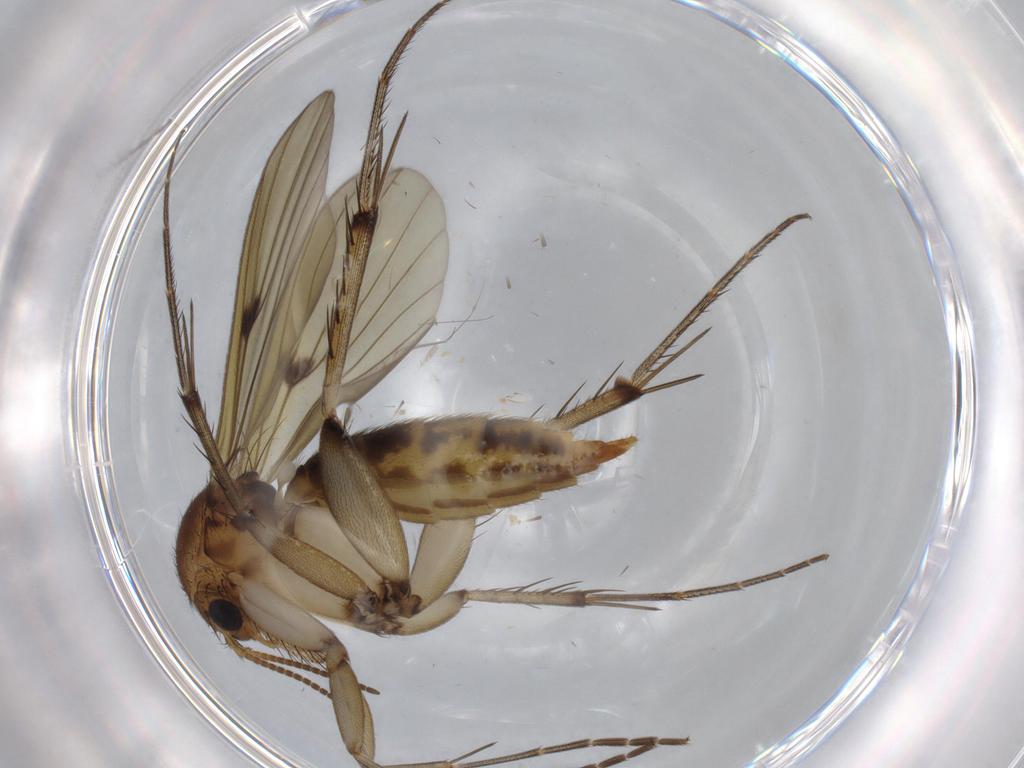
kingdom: Animalia
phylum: Arthropoda
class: Insecta
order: Diptera
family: Mycetophilidae
